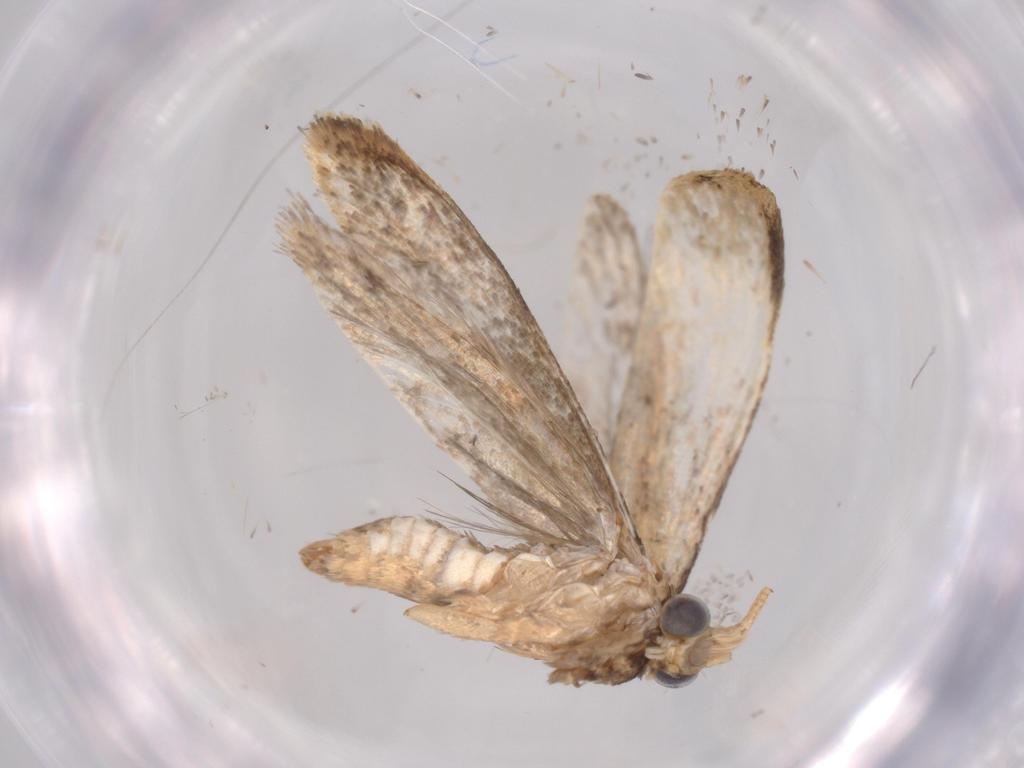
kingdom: Animalia
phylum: Arthropoda
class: Insecta
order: Lepidoptera
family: Tineidae
